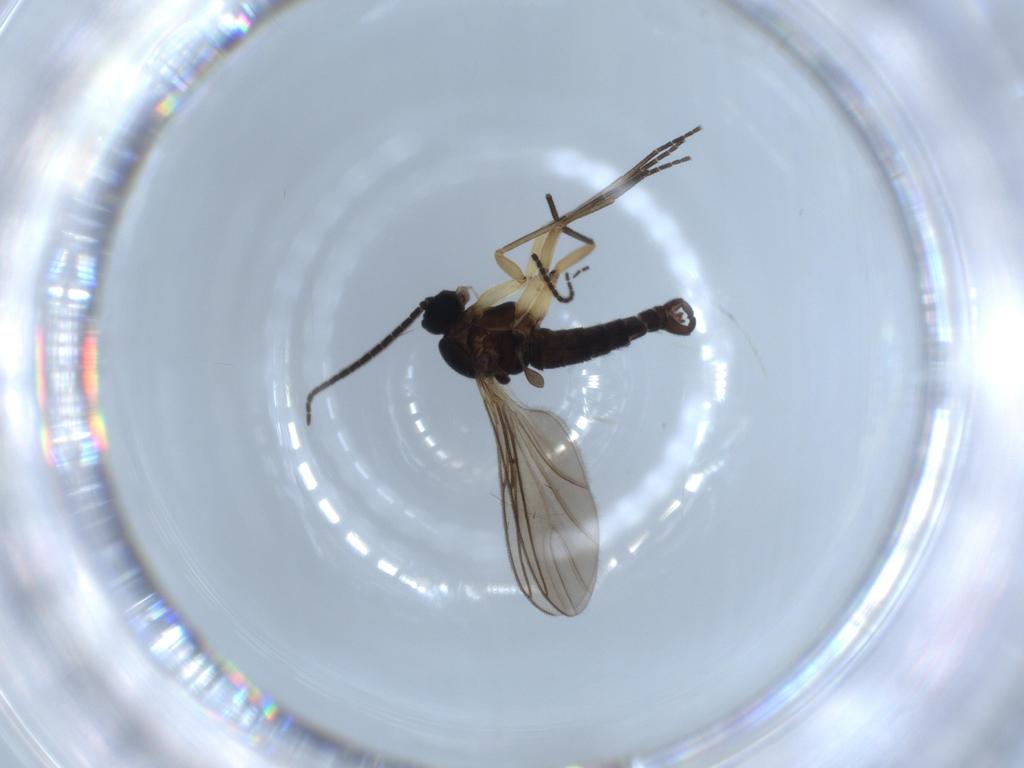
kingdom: Animalia
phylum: Arthropoda
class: Insecta
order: Diptera
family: Sciaridae
